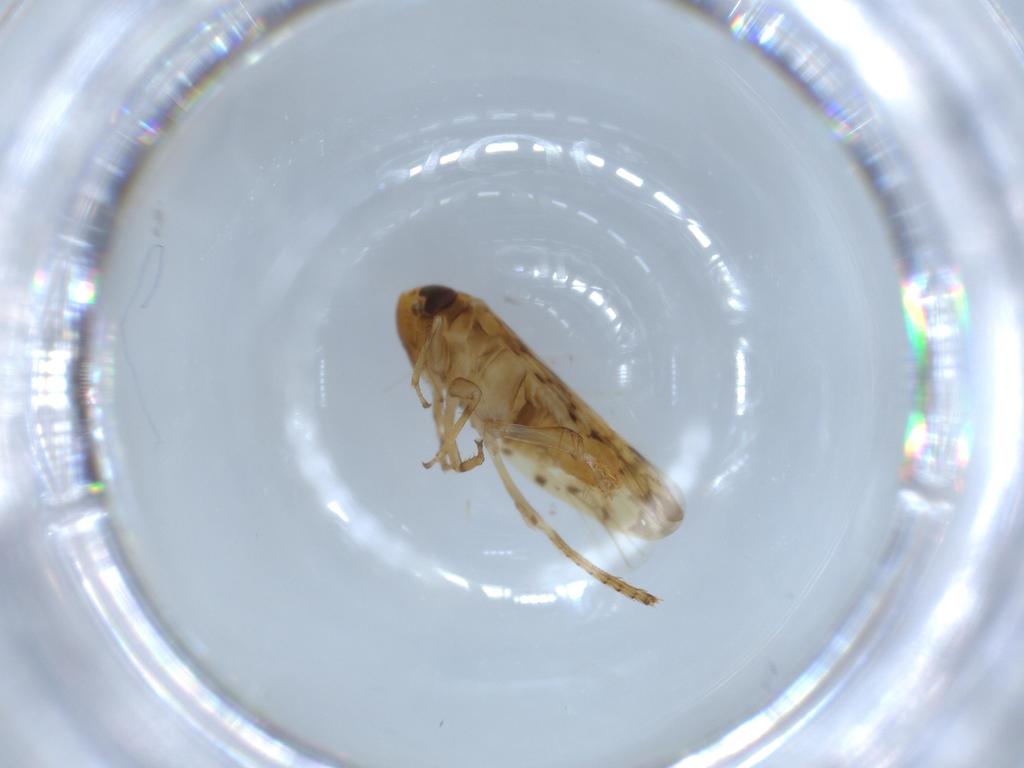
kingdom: Animalia
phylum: Arthropoda
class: Insecta
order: Hemiptera
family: Cicadellidae
